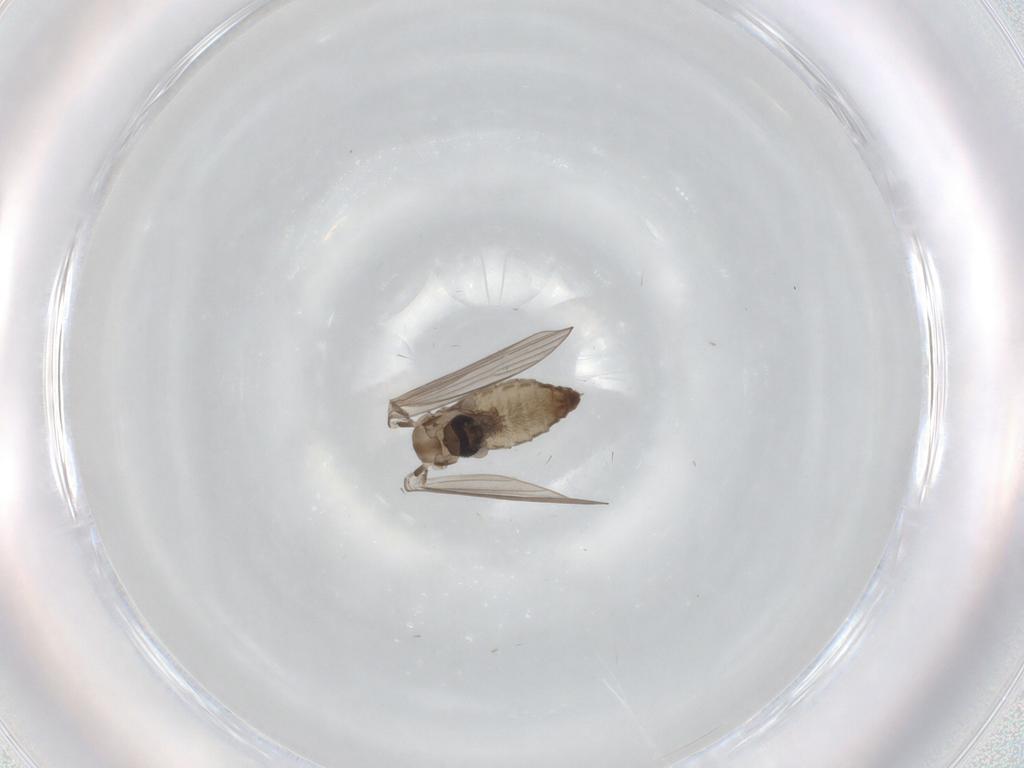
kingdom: Animalia
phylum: Arthropoda
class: Insecta
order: Diptera
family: Psychodidae
